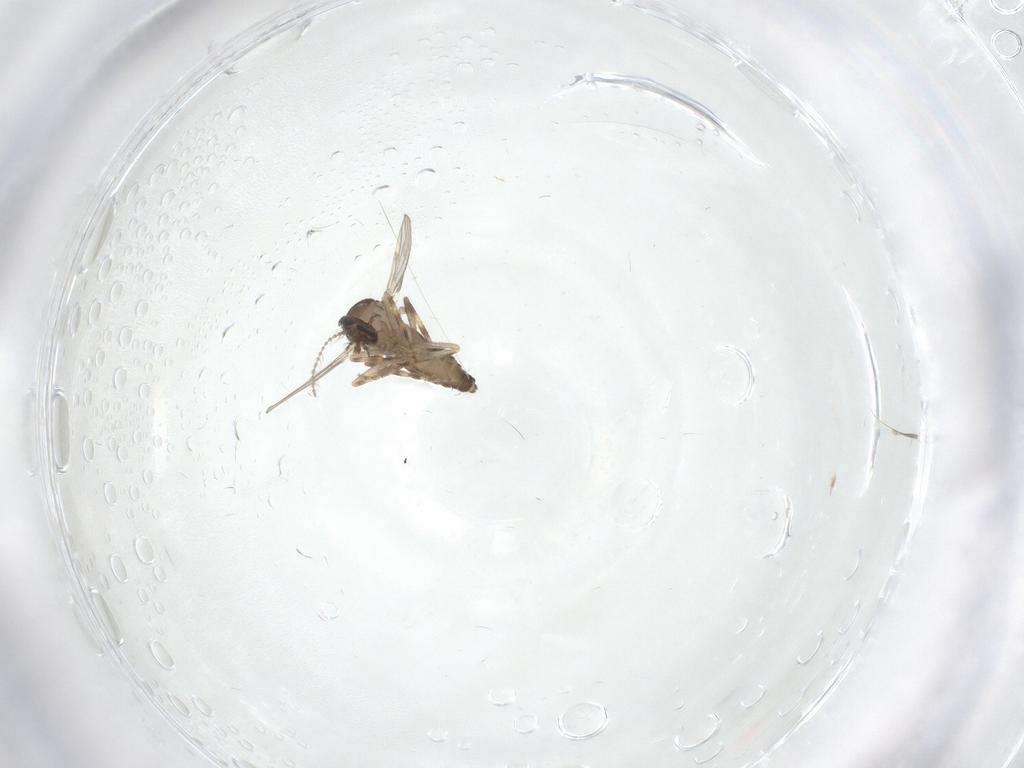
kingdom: Animalia
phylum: Arthropoda
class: Insecta
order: Diptera
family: Ceratopogonidae
